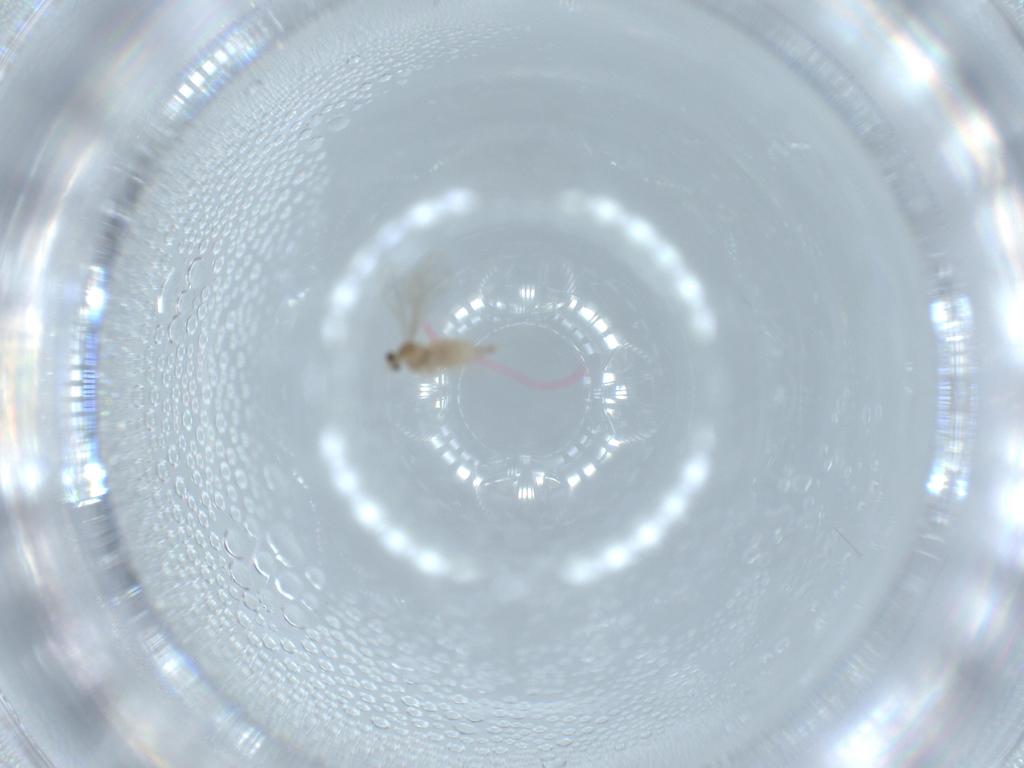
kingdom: Animalia
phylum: Arthropoda
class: Insecta
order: Diptera
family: Cecidomyiidae
